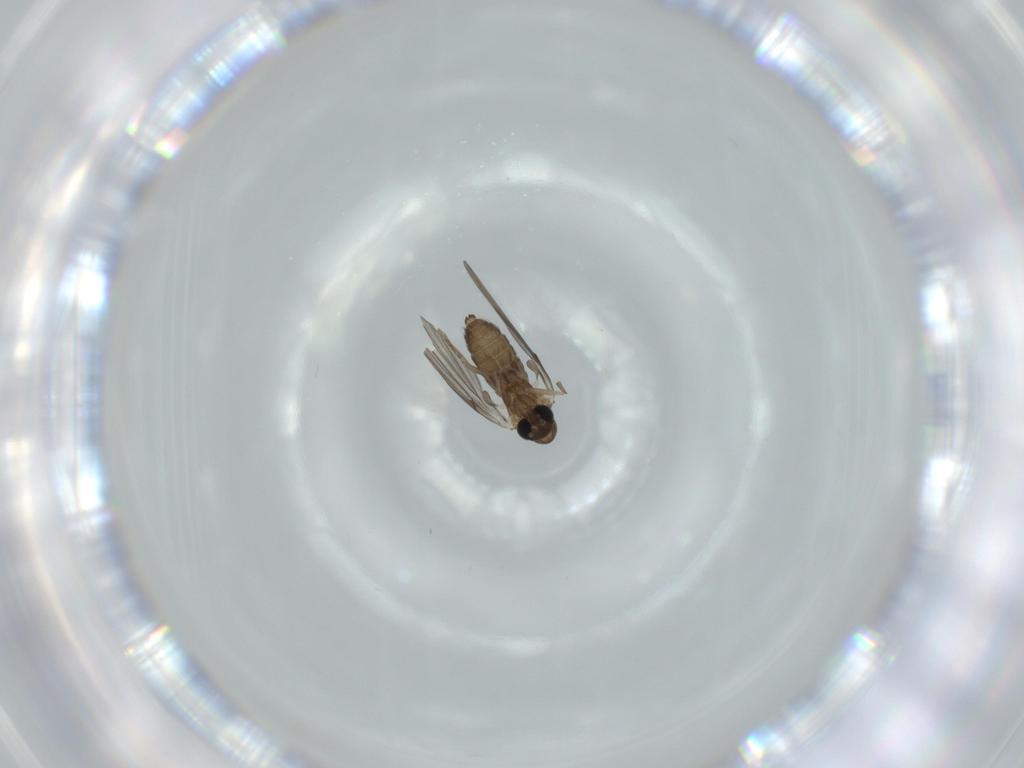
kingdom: Animalia
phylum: Arthropoda
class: Insecta
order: Diptera
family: Psychodidae
